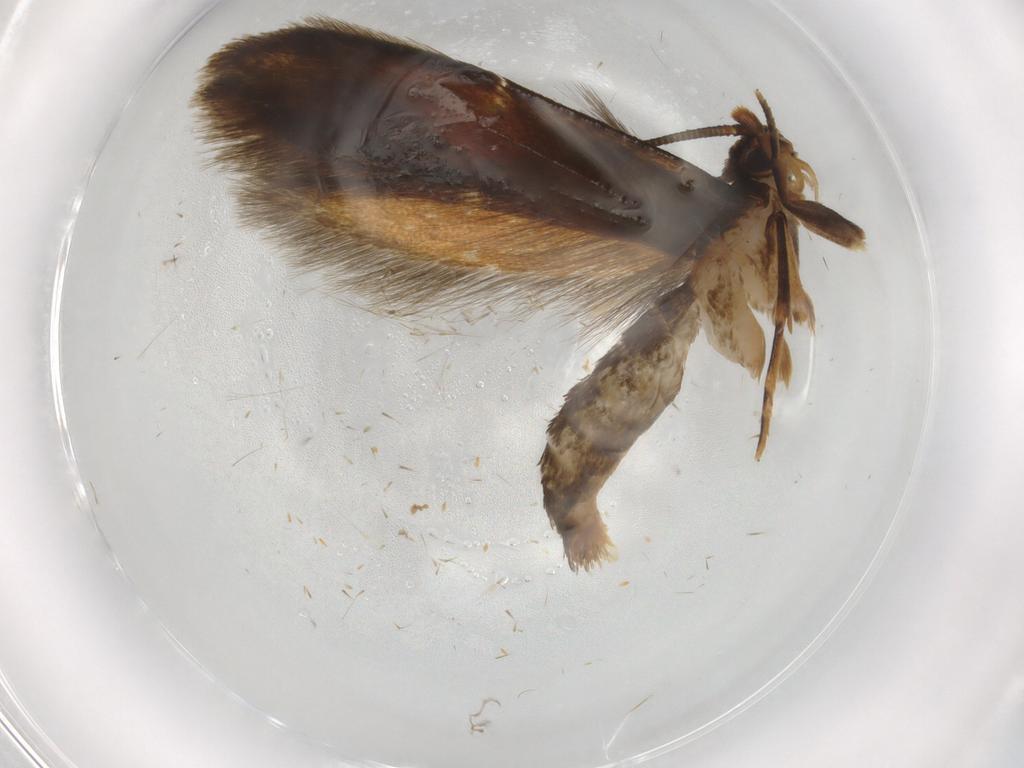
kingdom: Animalia
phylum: Arthropoda
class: Insecta
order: Lepidoptera
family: Tineidae
